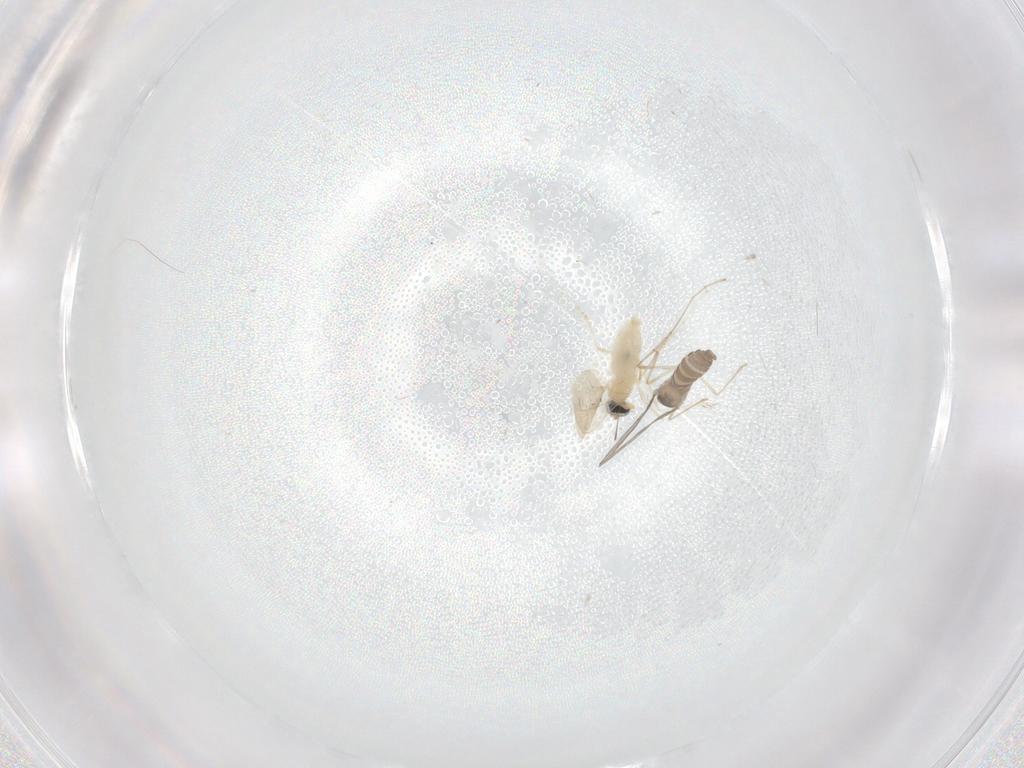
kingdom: Animalia
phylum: Arthropoda
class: Insecta
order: Diptera
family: Cecidomyiidae
